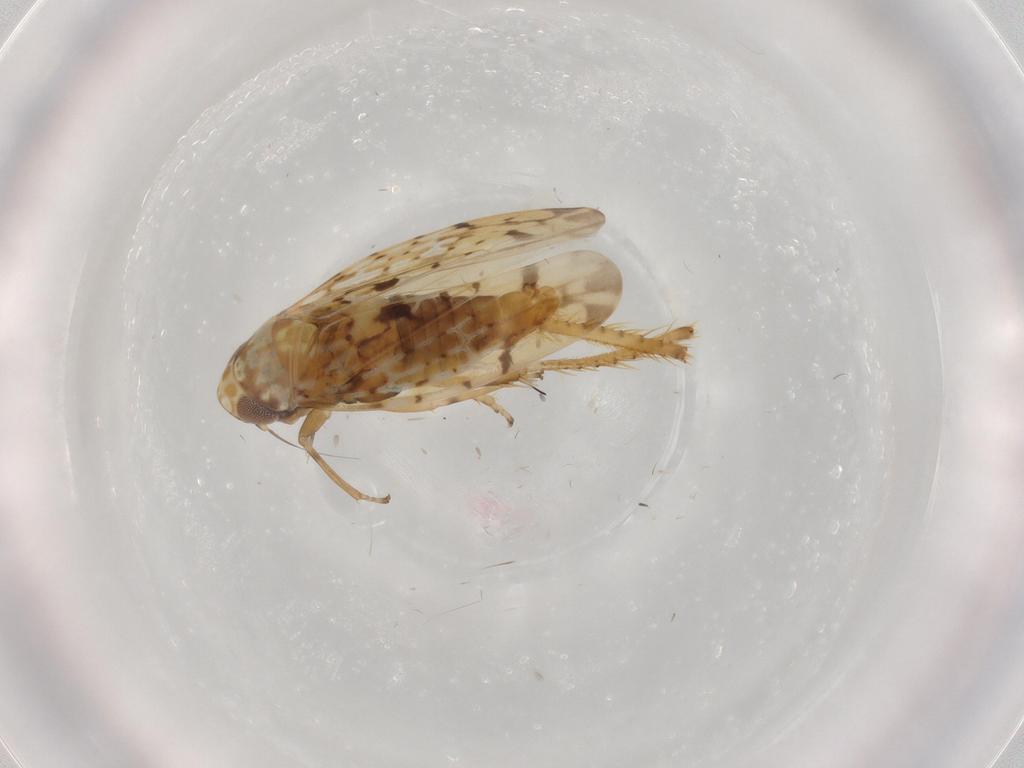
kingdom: Animalia
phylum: Arthropoda
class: Insecta
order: Hemiptera
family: Cicadellidae
